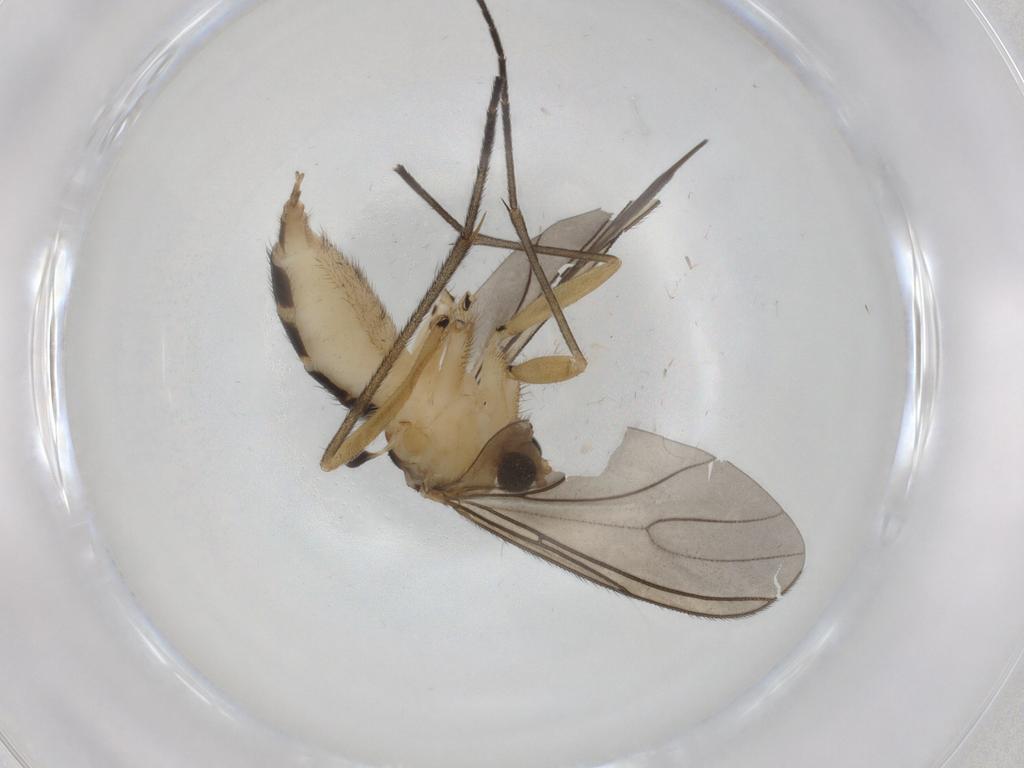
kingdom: Animalia
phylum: Arthropoda
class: Insecta
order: Diptera
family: Sciaridae
